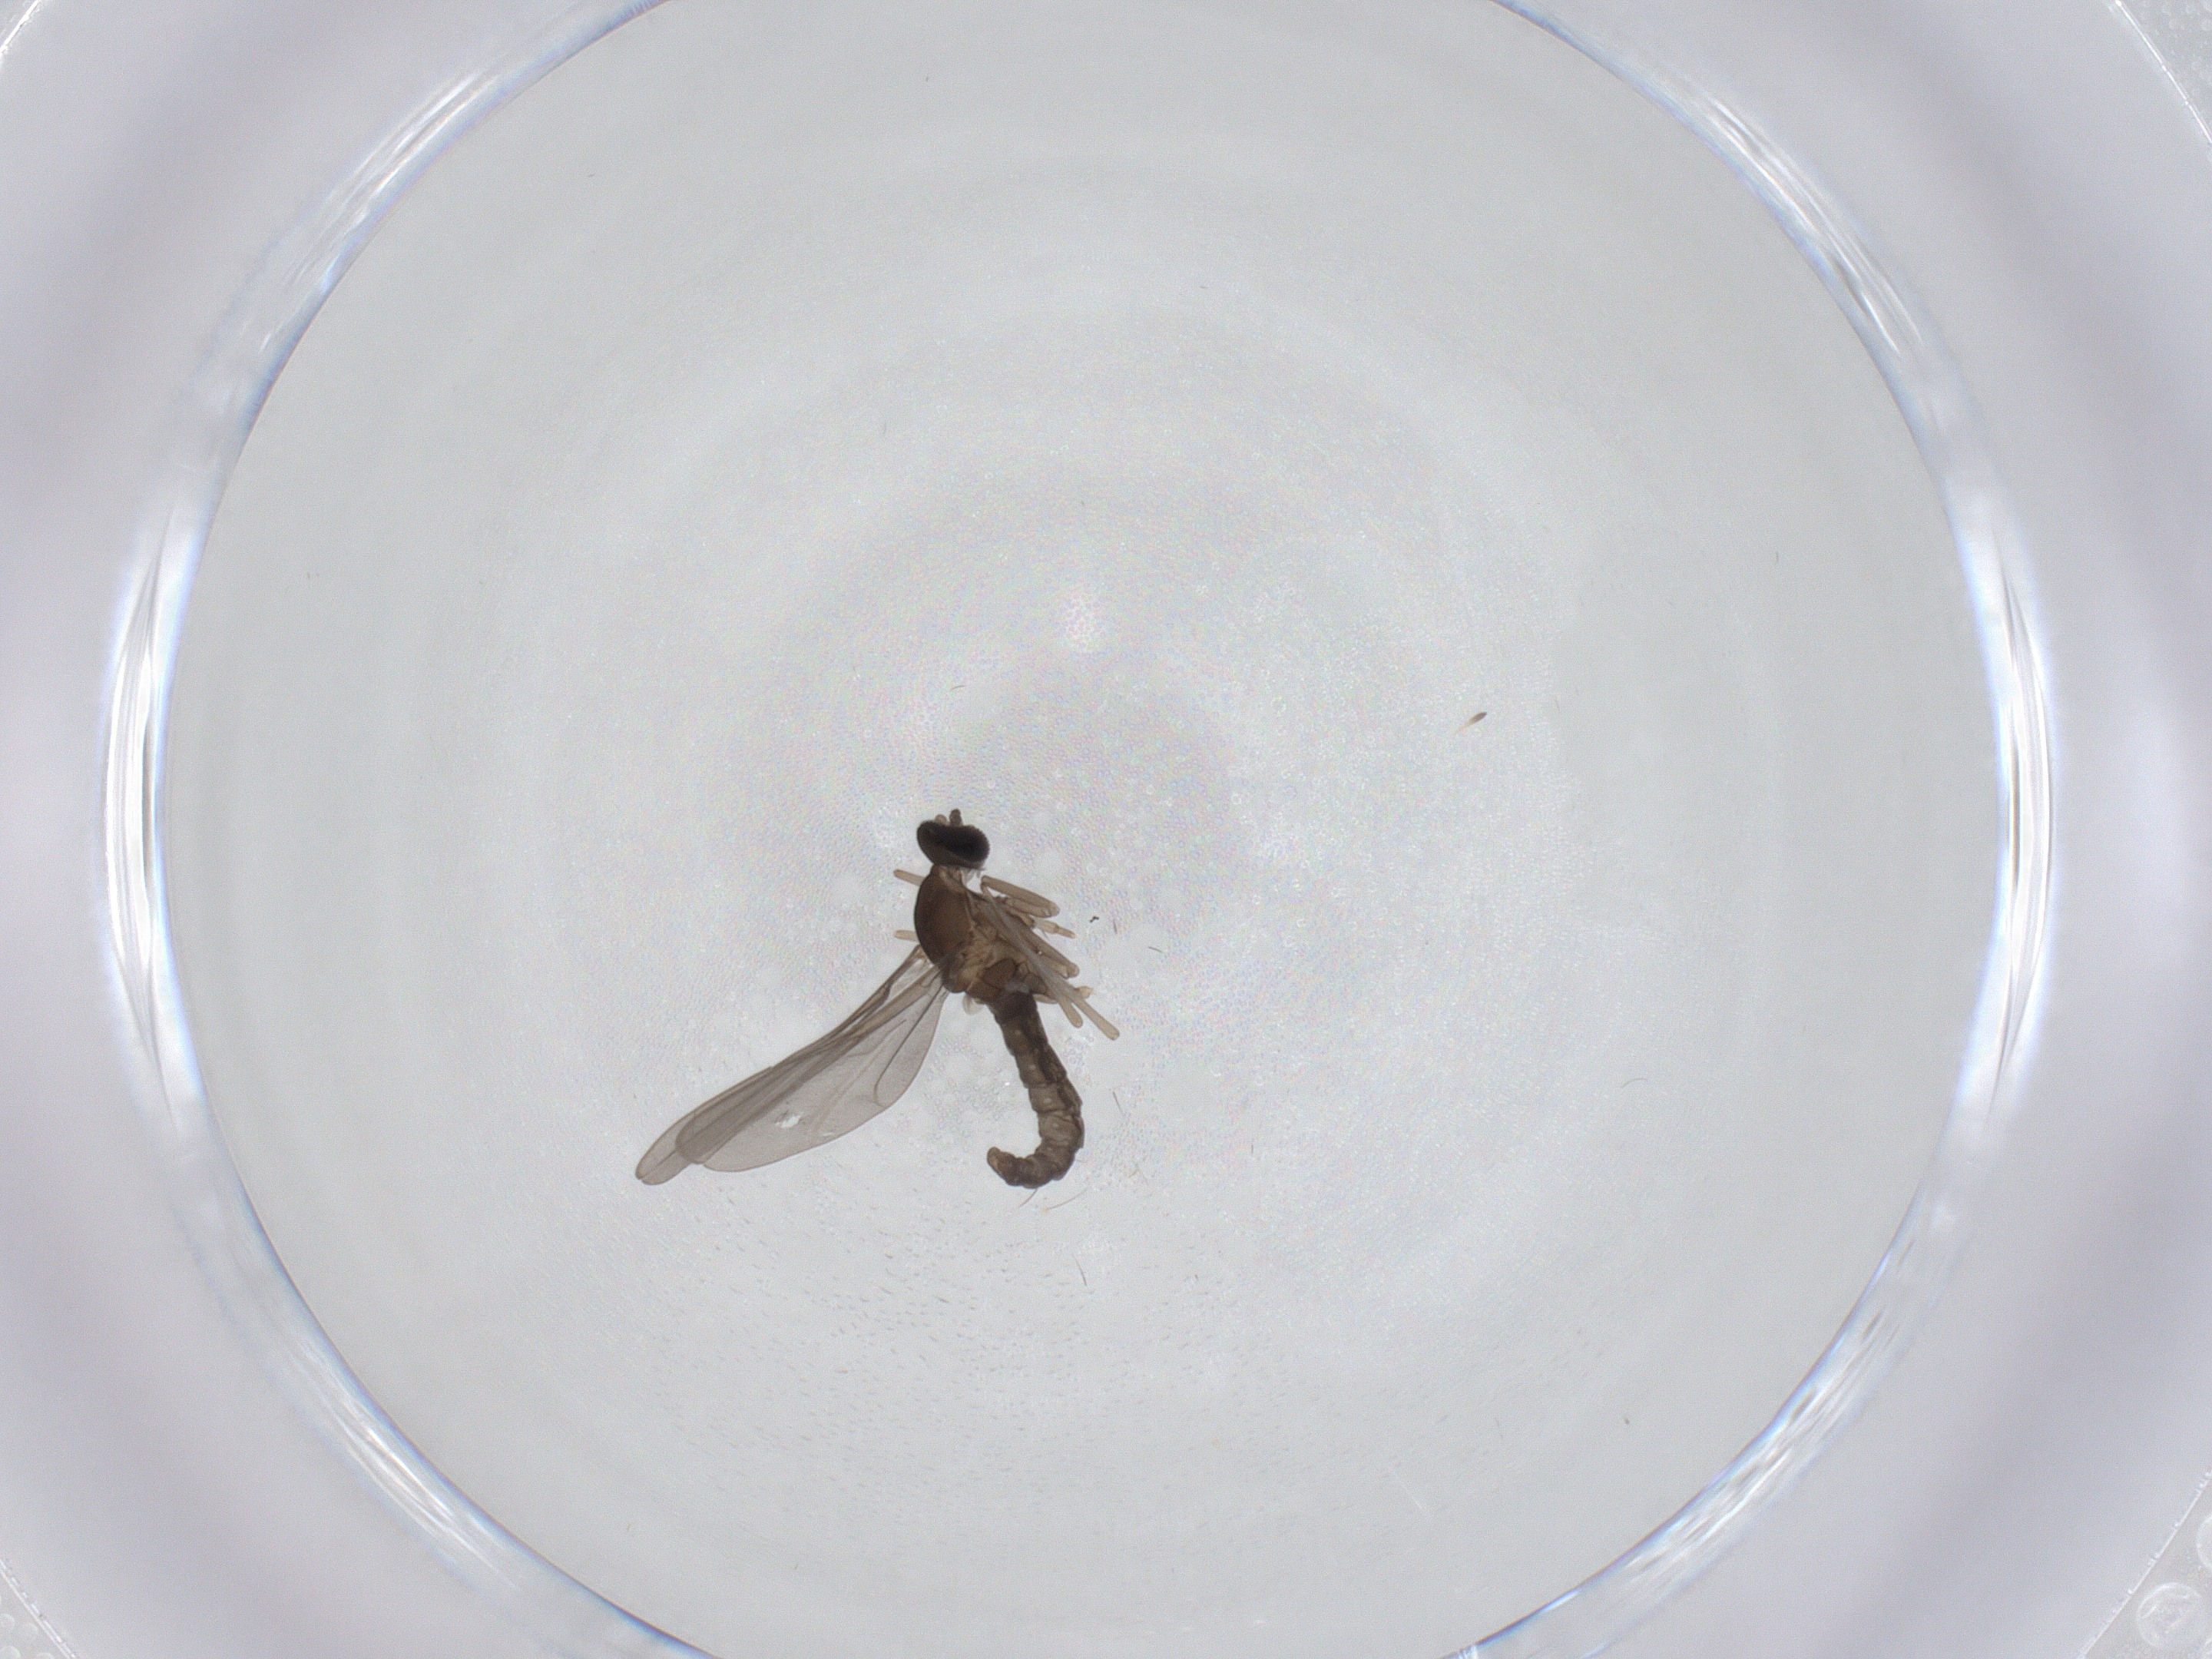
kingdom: Animalia
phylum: Arthropoda
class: Insecta
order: Diptera
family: Cecidomyiidae
